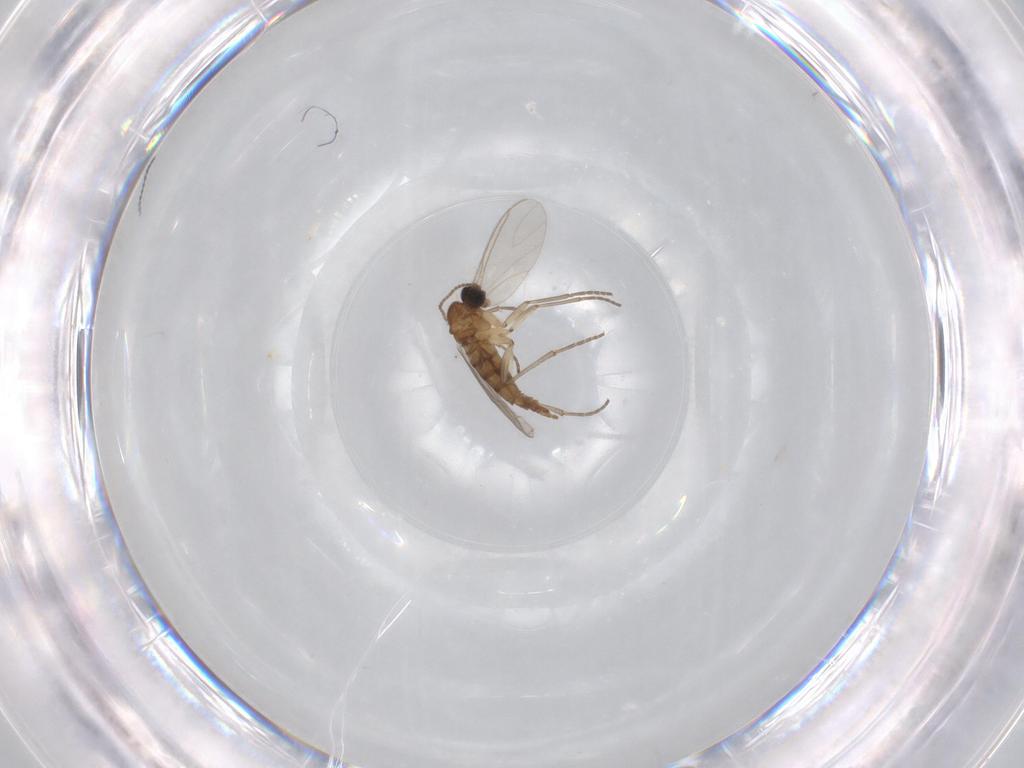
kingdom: Animalia
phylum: Arthropoda
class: Insecta
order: Diptera
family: Sciaridae
